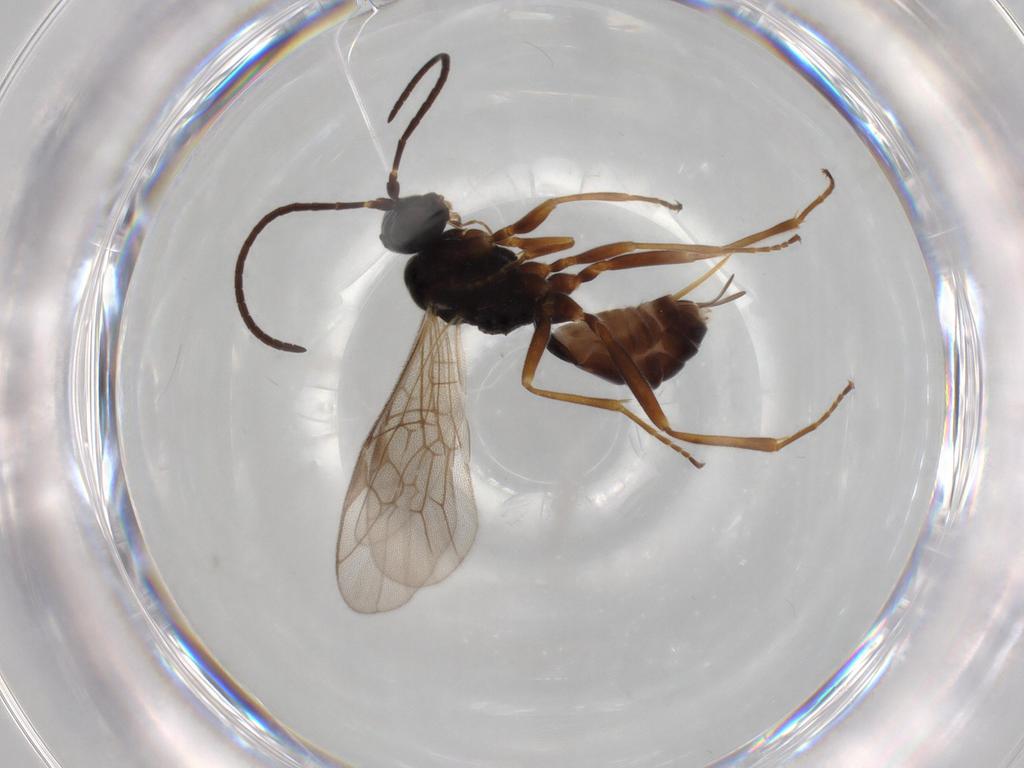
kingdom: Animalia
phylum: Arthropoda
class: Insecta
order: Hymenoptera
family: Ichneumonidae
